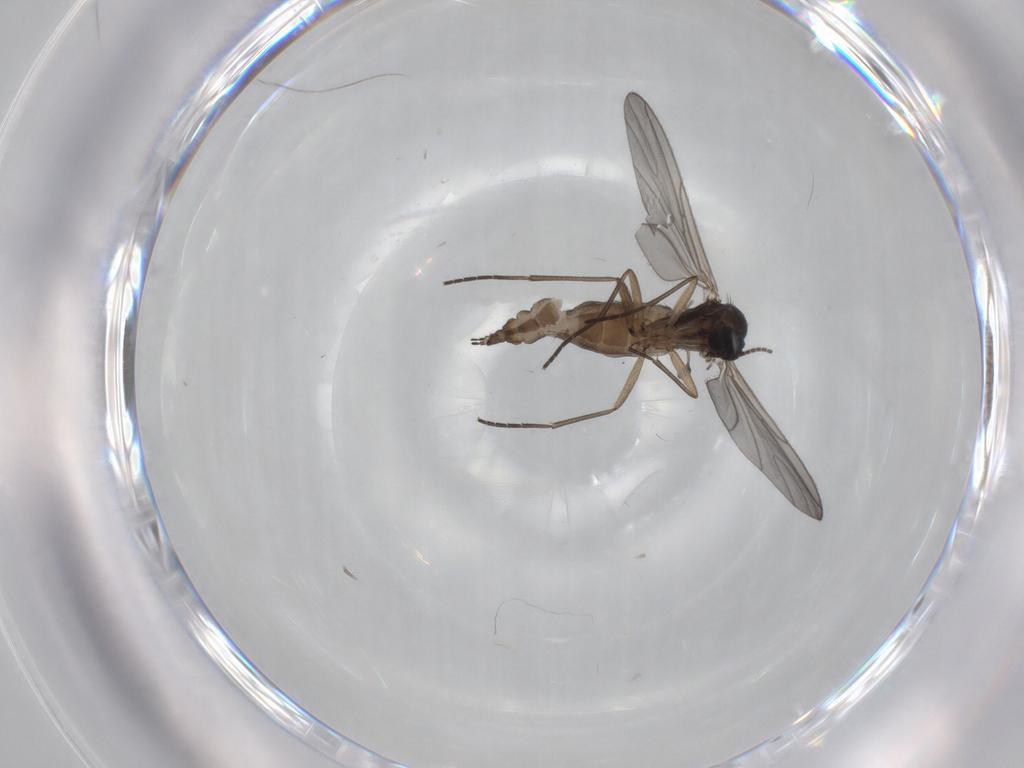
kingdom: Animalia
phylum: Arthropoda
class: Insecta
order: Diptera
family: Sciaridae
